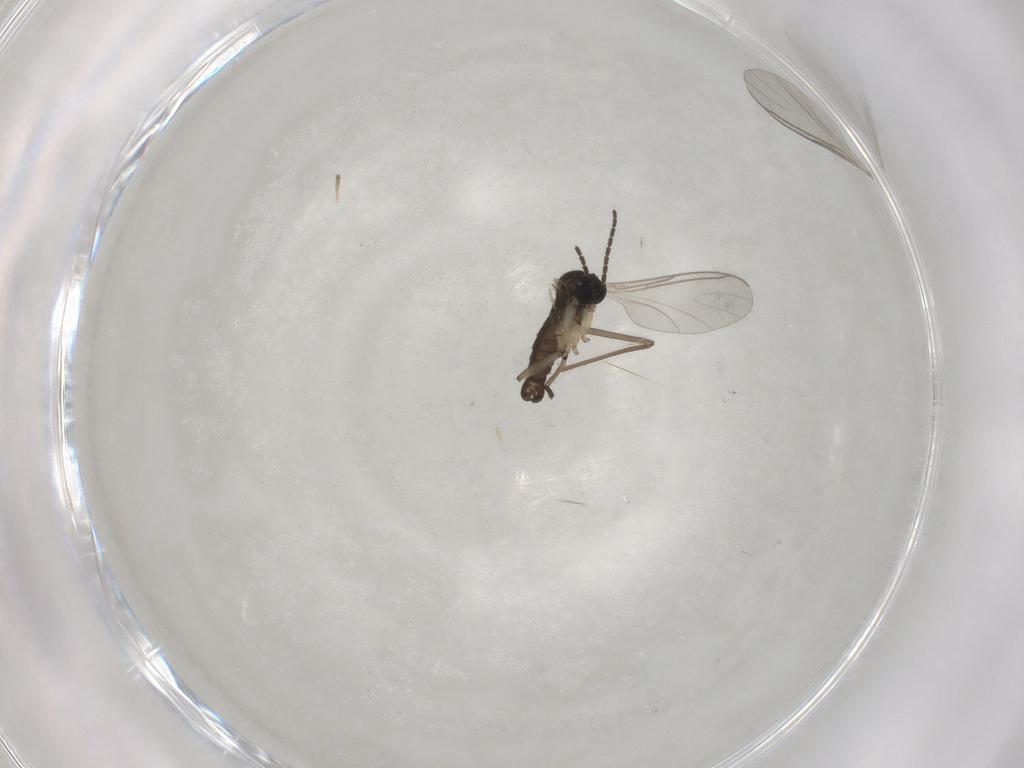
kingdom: Animalia
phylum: Arthropoda
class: Insecta
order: Diptera
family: Sciaridae
